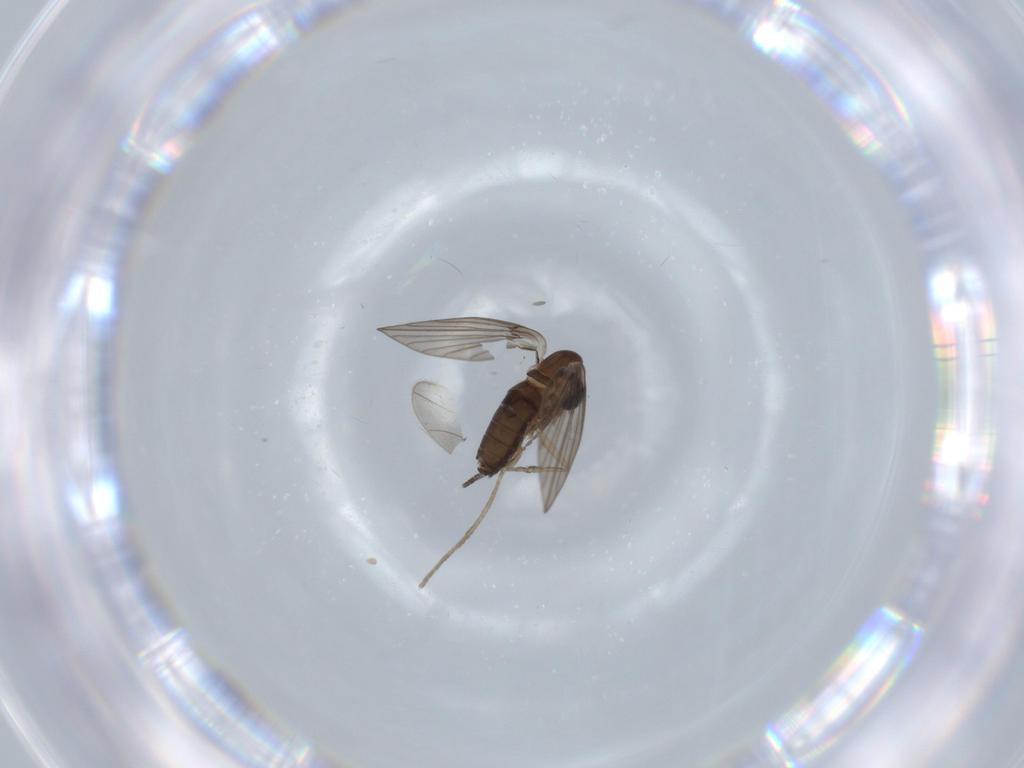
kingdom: Animalia
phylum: Arthropoda
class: Insecta
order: Diptera
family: Psychodidae
